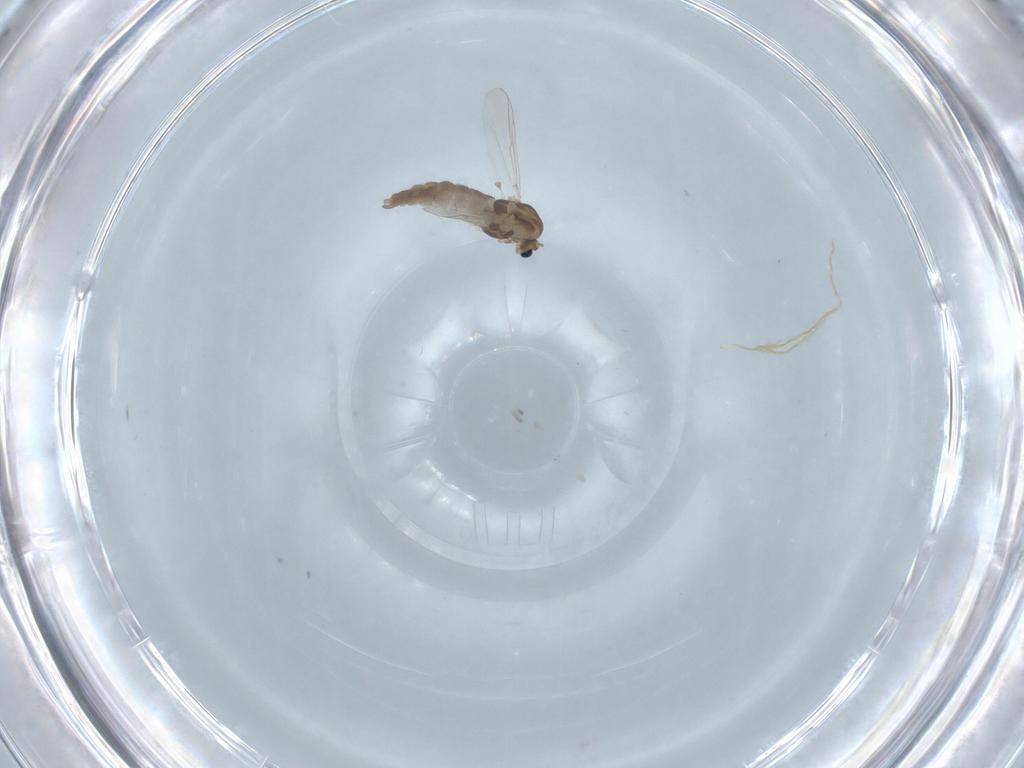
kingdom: Animalia
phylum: Arthropoda
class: Insecta
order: Diptera
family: Chironomidae
